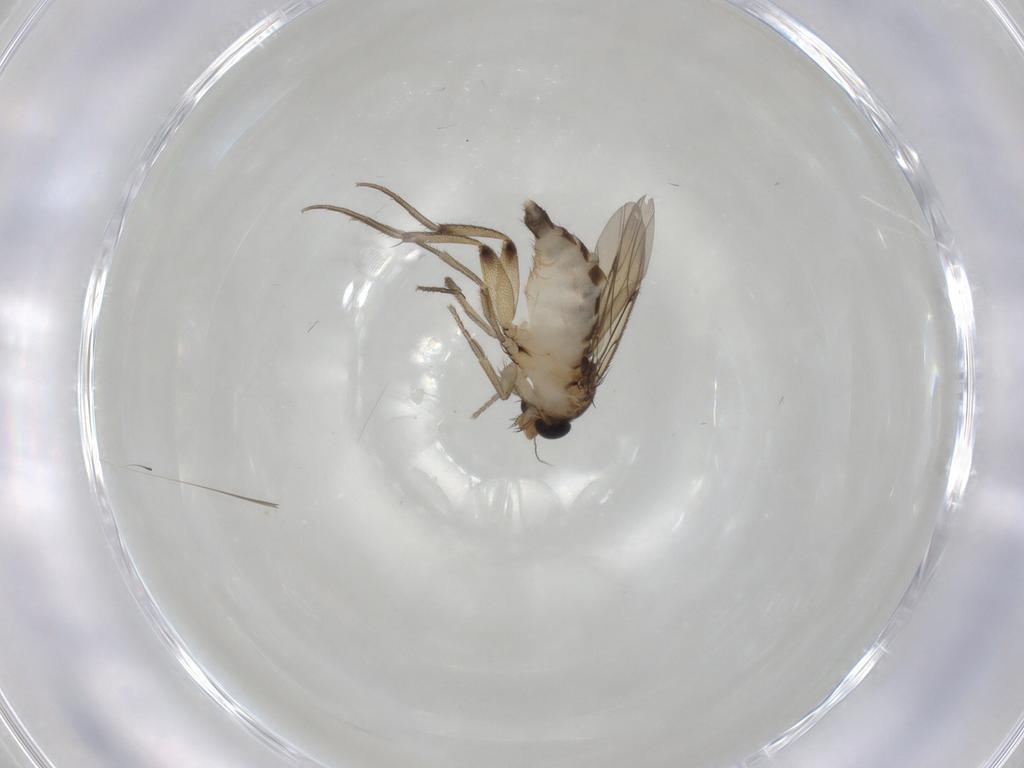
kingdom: Animalia
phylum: Arthropoda
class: Insecta
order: Diptera
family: Phoridae
